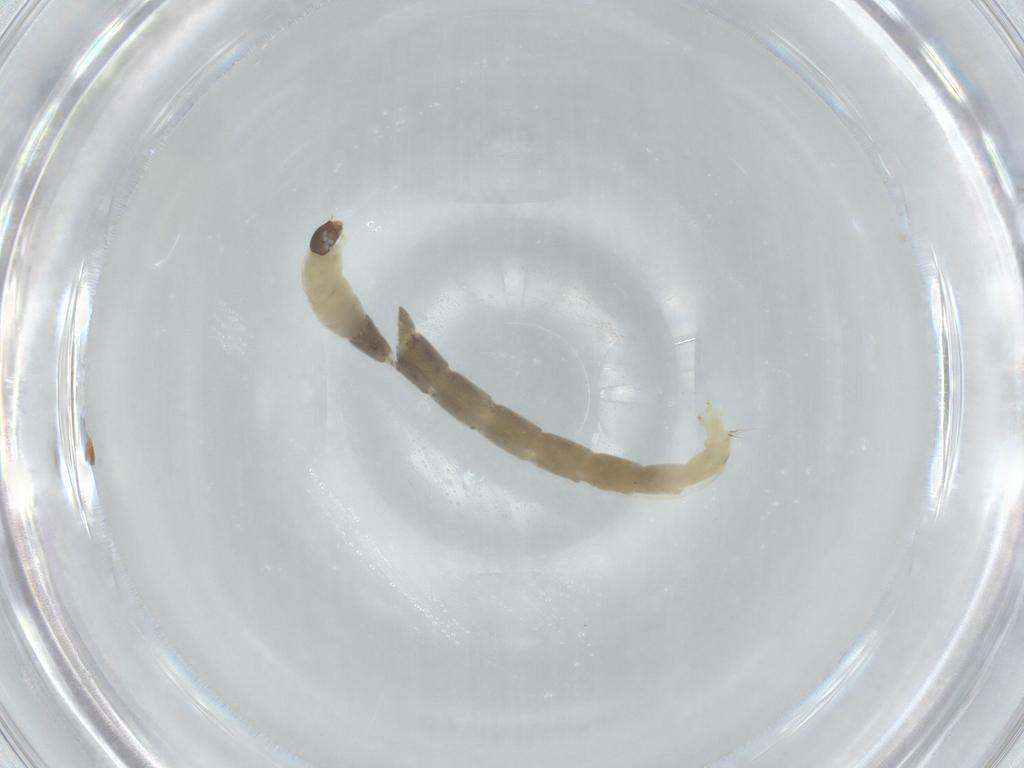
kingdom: Animalia
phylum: Arthropoda
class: Insecta
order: Diptera
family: Chironomidae
